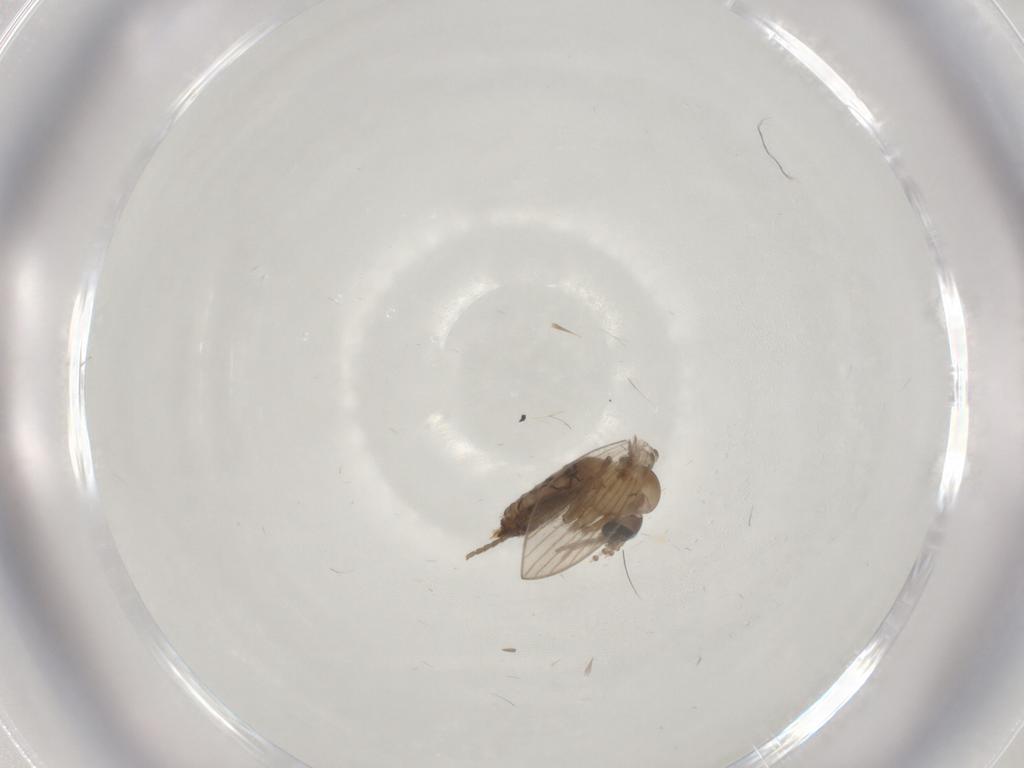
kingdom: Animalia
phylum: Arthropoda
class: Insecta
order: Diptera
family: Psychodidae
